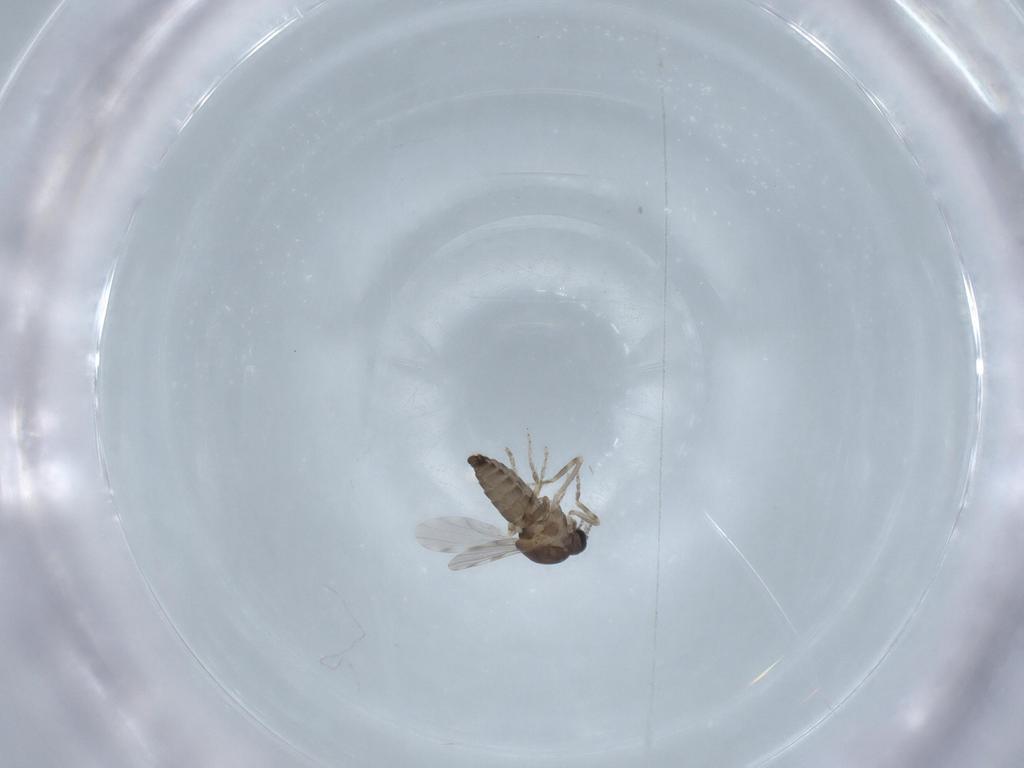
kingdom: Animalia
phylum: Arthropoda
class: Insecta
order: Diptera
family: Ceratopogonidae
